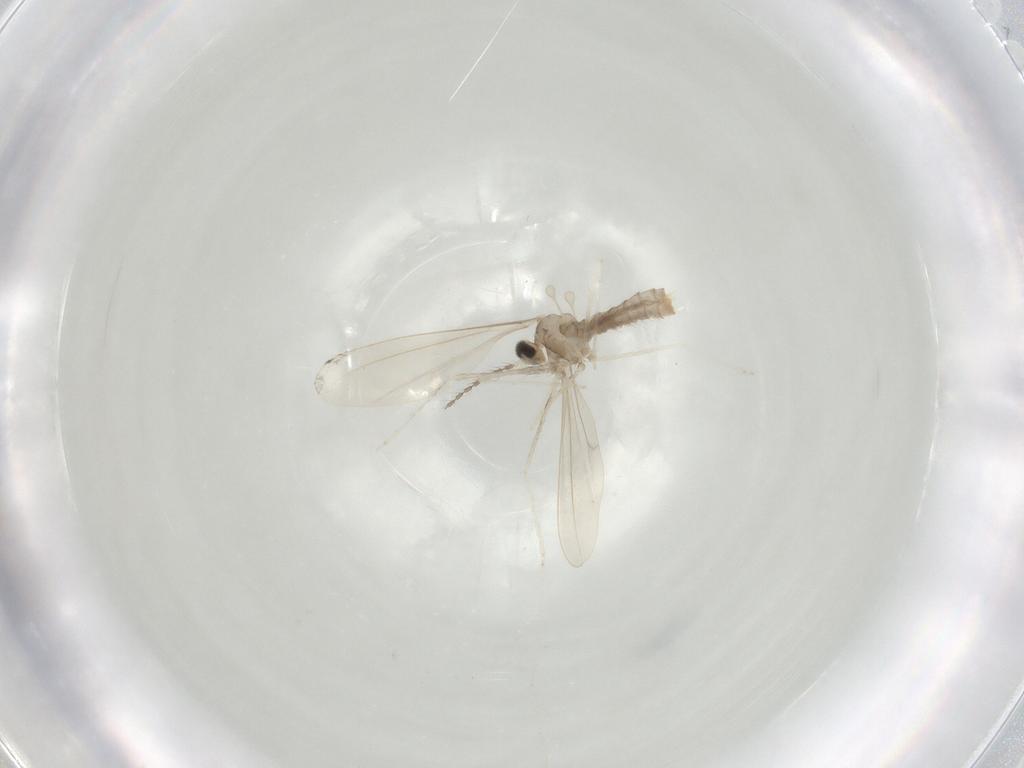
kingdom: Animalia
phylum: Arthropoda
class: Insecta
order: Diptera
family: Cecidomyiidae
